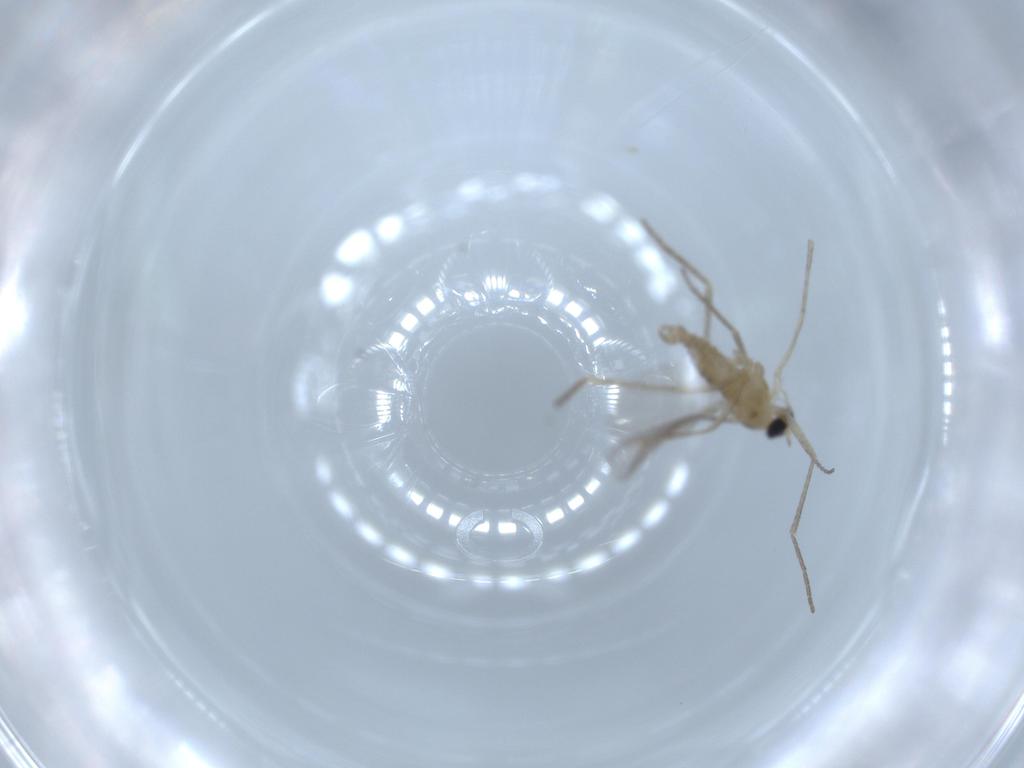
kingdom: Animalia
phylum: Arthropoda
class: Insecta
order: Diptera
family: Cecidomyiidae
